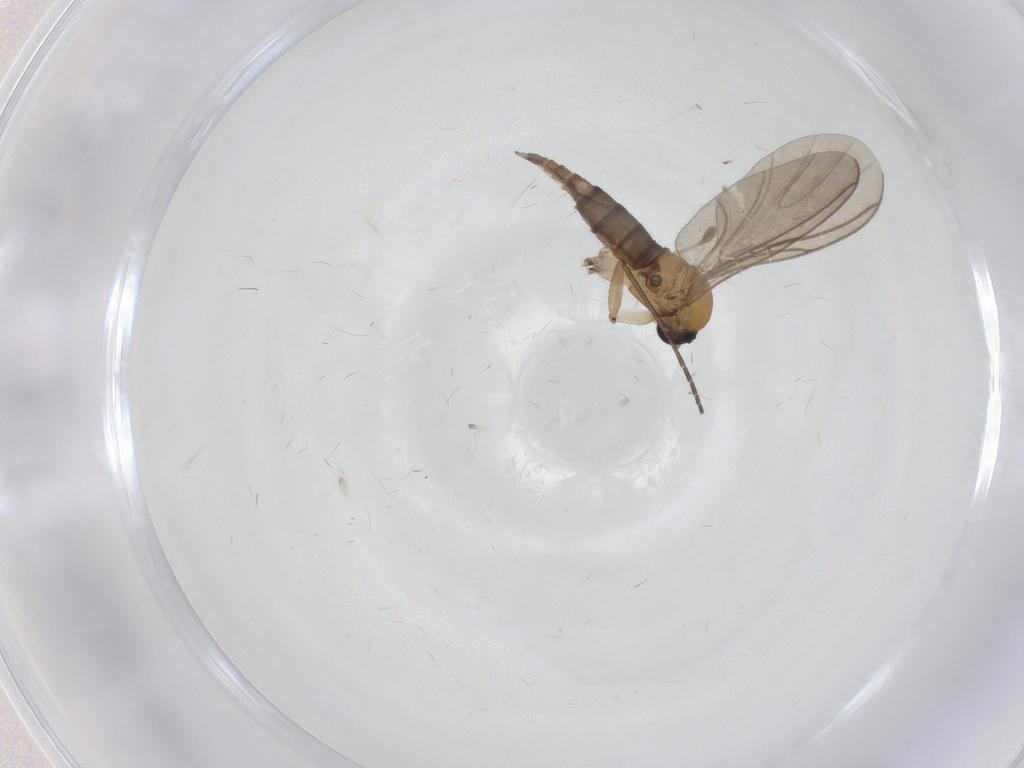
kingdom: Animalia
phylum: Arthropoda
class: Insecta
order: Diptera
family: Sciaridae
